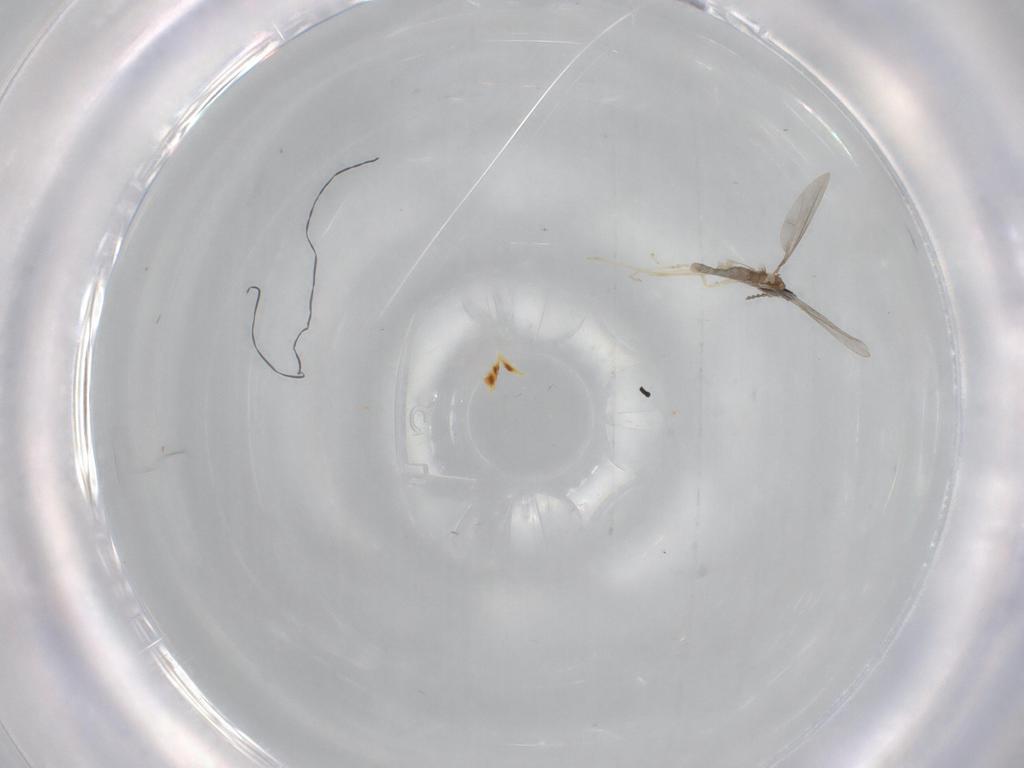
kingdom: Animalia
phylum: Arthropoda
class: Insecta
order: Diptera
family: Cecidomyiidae
